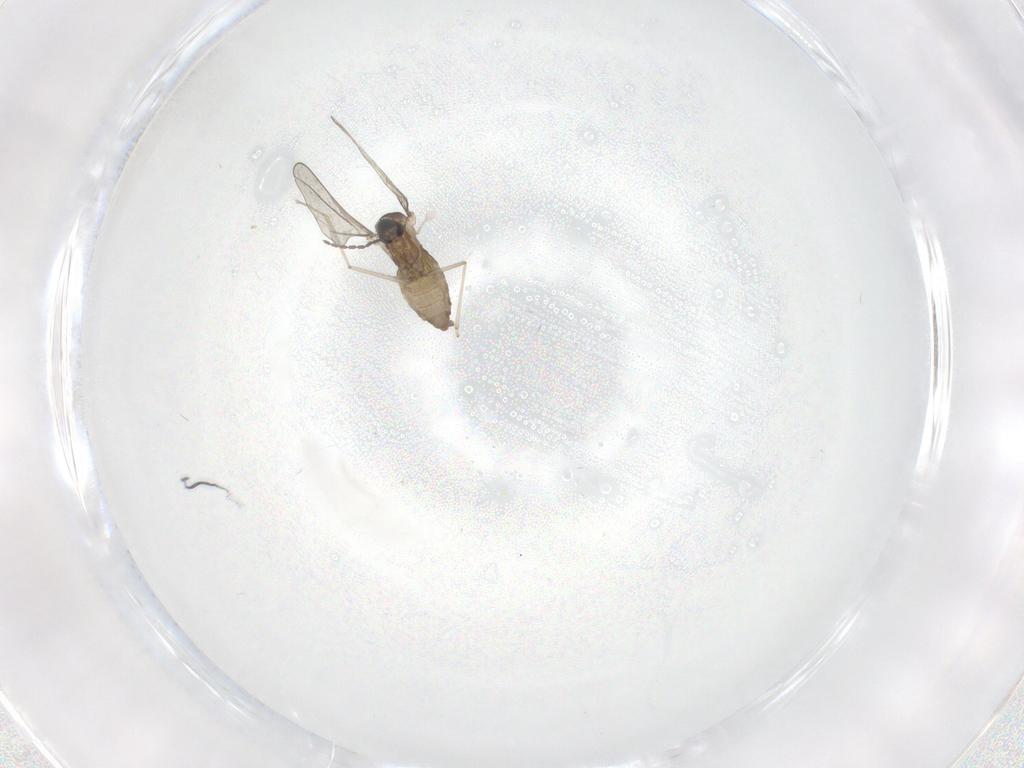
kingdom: Animalia
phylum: Arthropoda
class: Insecta
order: Diptera
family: Cecidomyiidae
